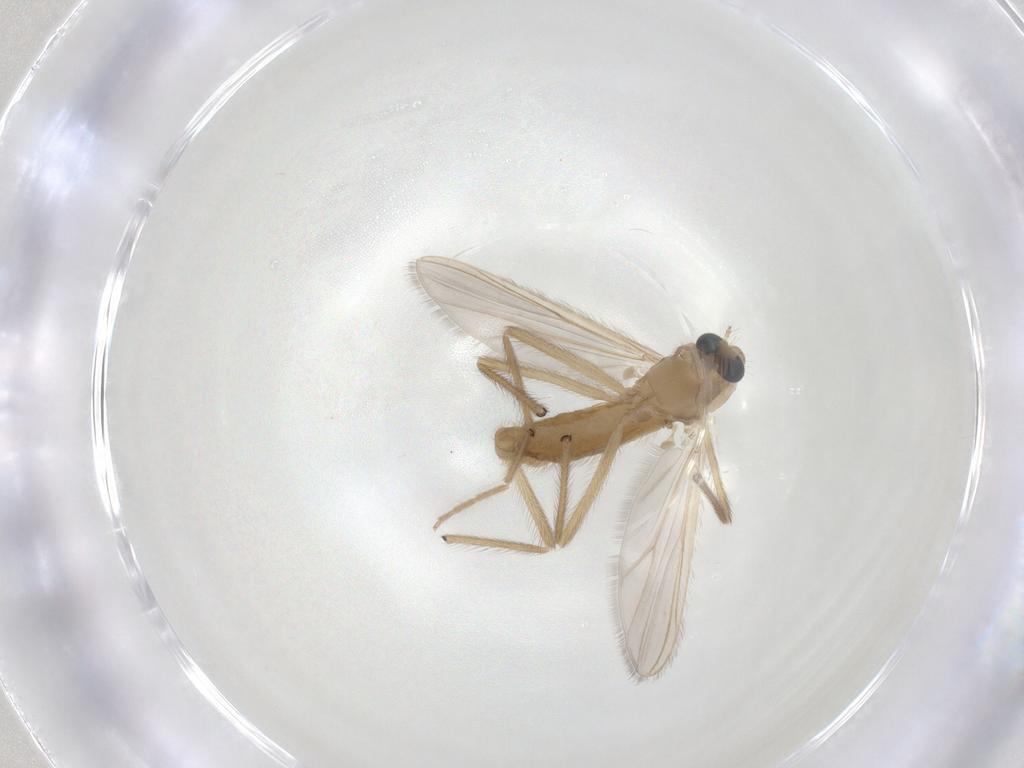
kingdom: Animalia
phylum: Arthropoda
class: Insecta
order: Diptera
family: Chironomidae
